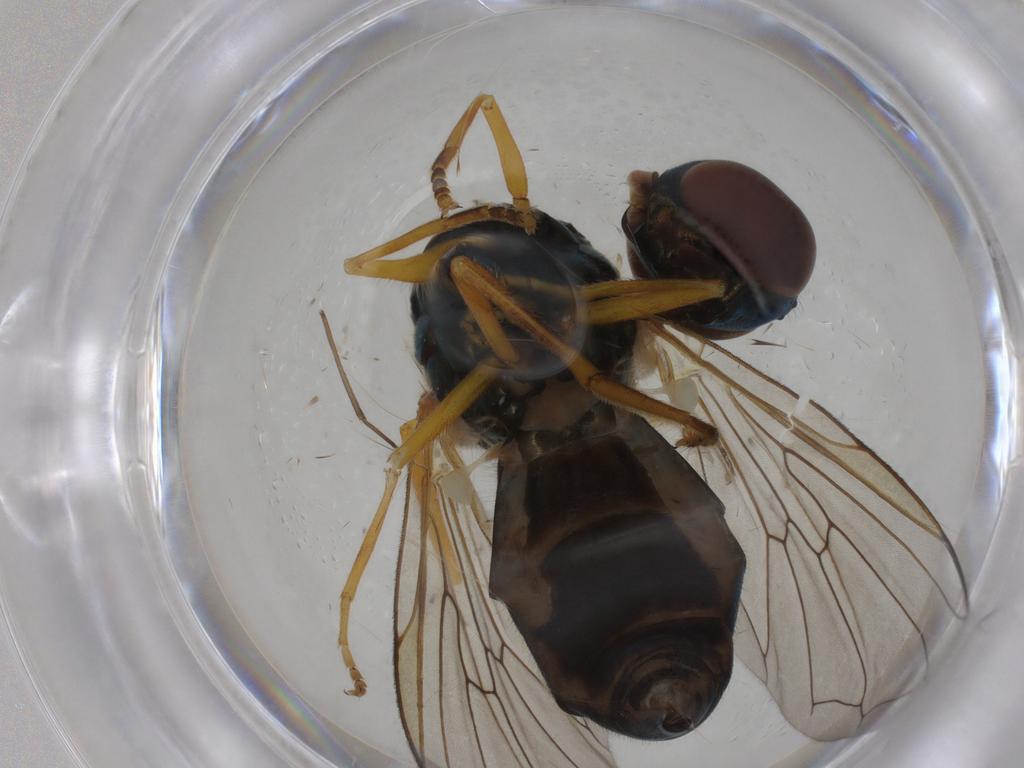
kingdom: Animalia
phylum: Arthropoda
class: Insecta
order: Diptera
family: Syrphidae
